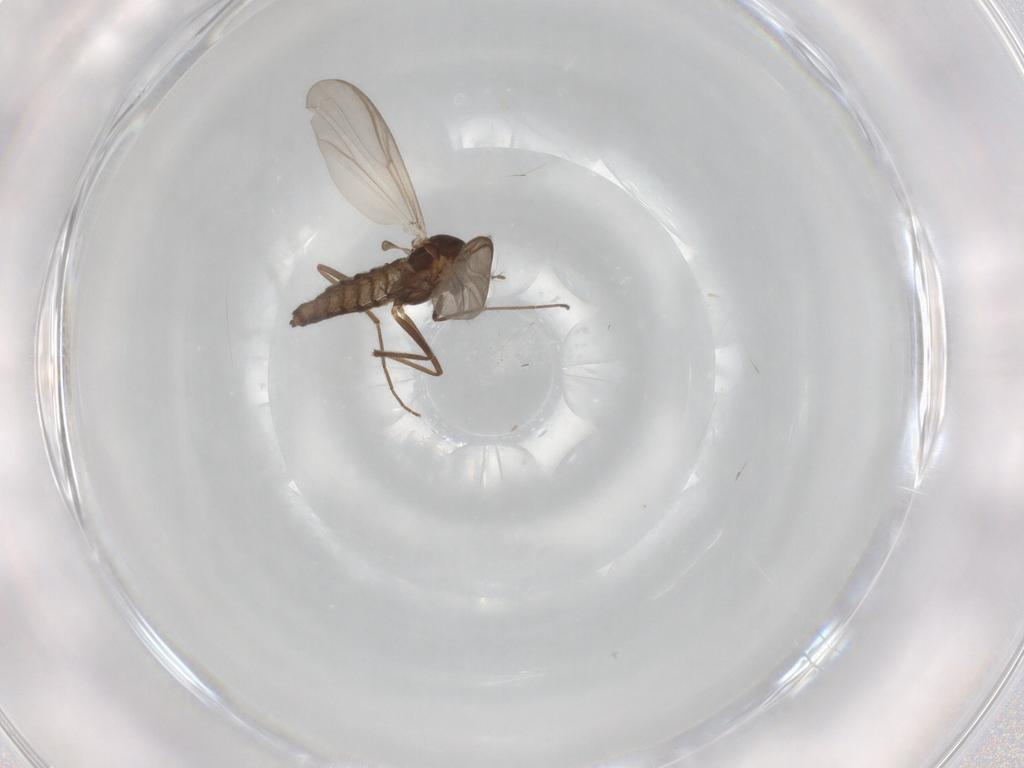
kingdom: Animalia
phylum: Arthropoda
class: Insecta
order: Diptera
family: Chironomidae
